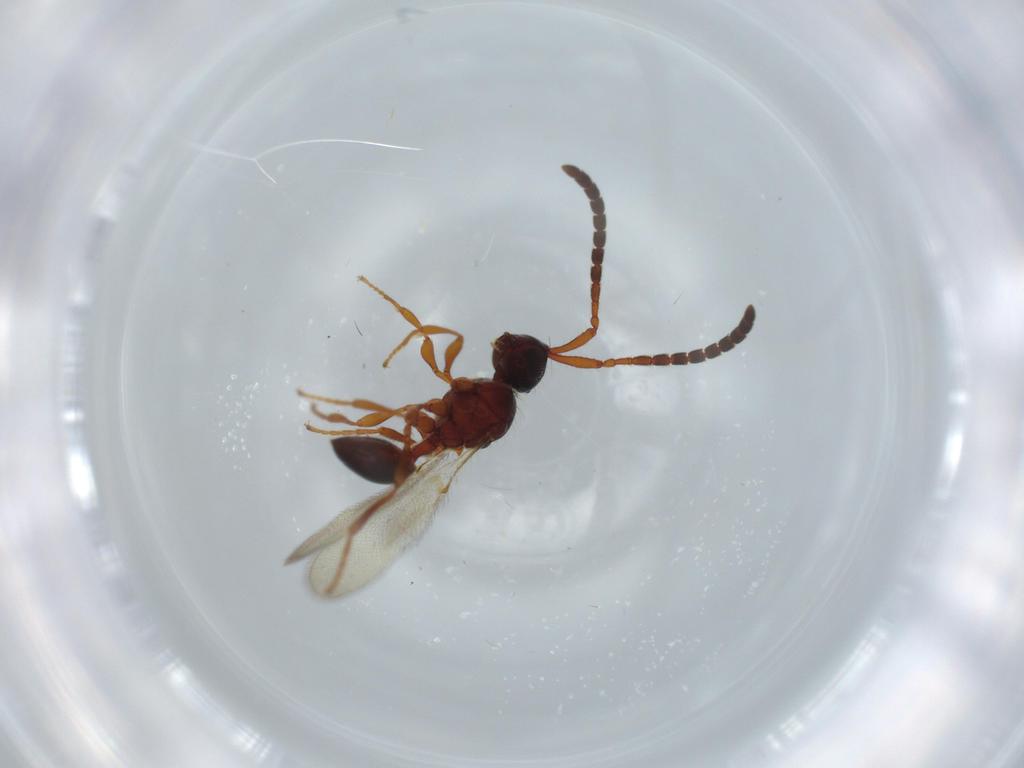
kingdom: Animalia
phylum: Arthropoda
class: Insecta
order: Hymenoptera
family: Diapriidae
